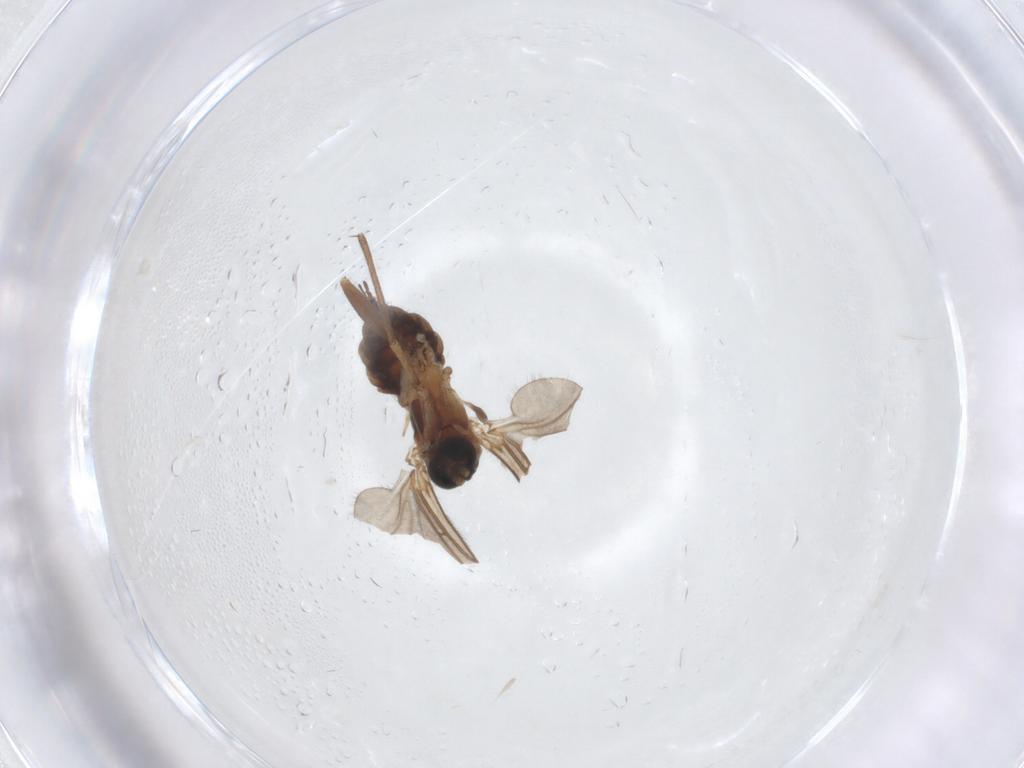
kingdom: Animalia
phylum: Arthropoda
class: Insecta
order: Diptera
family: Sciaridae
